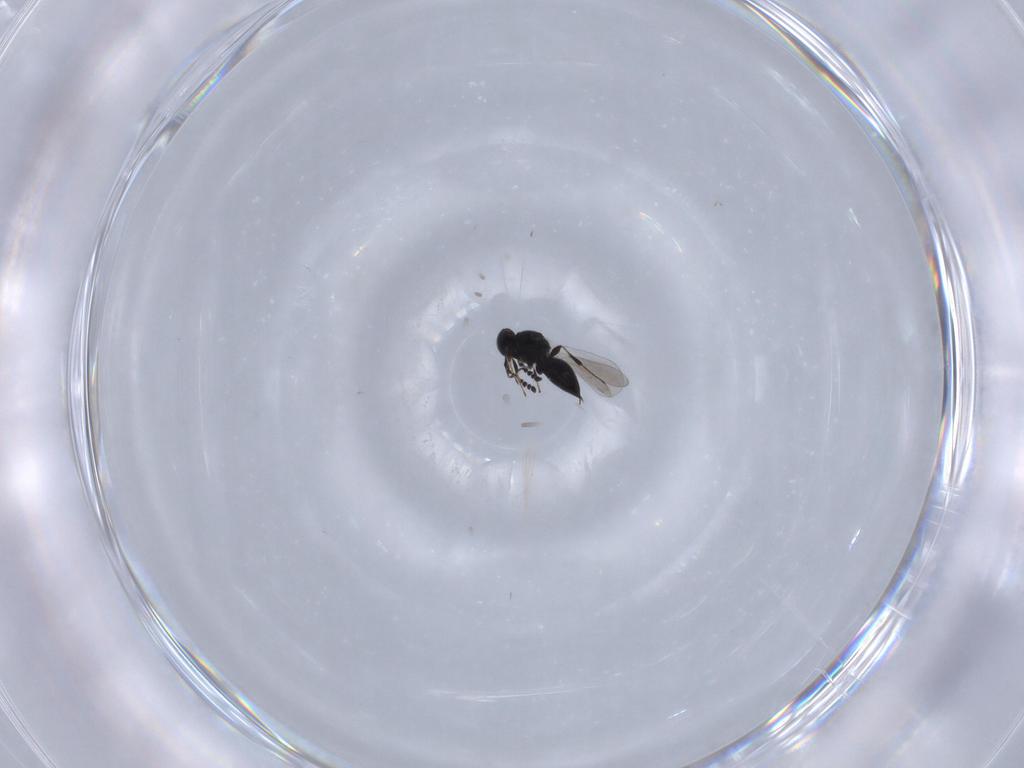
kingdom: Animalia
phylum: Arthropoda
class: Insecta
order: Hymenoptera
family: Platygastridae
